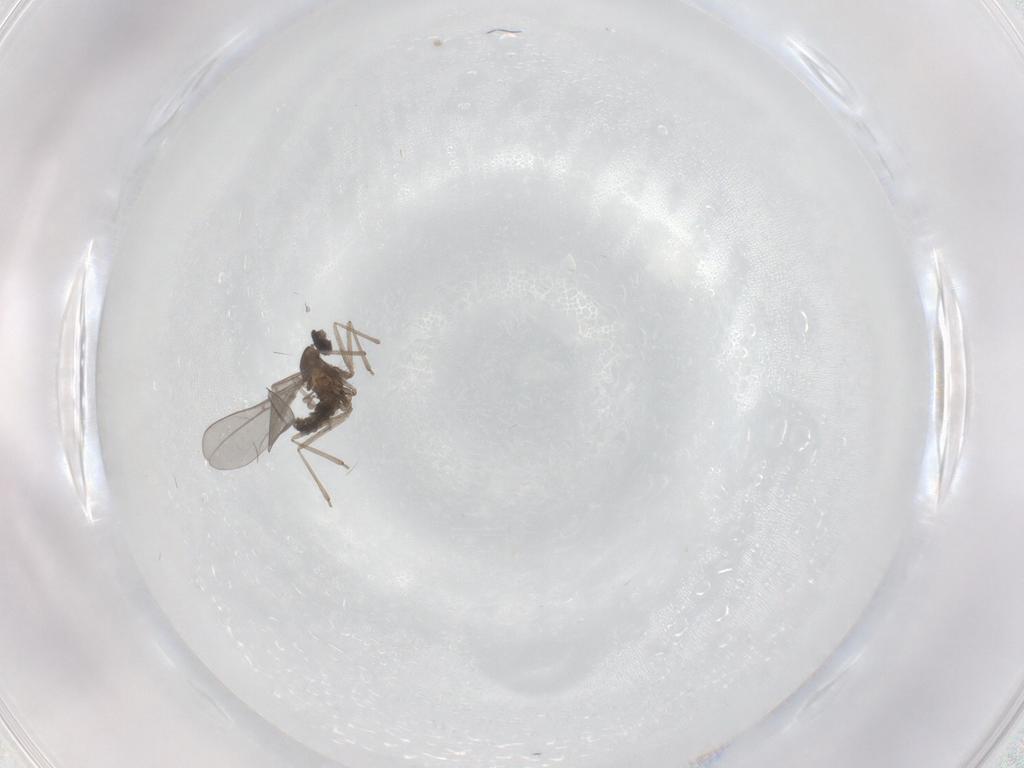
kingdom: Animalia
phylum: Arthropoda
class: Insecta
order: Diptera
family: Cecidomyiidae
